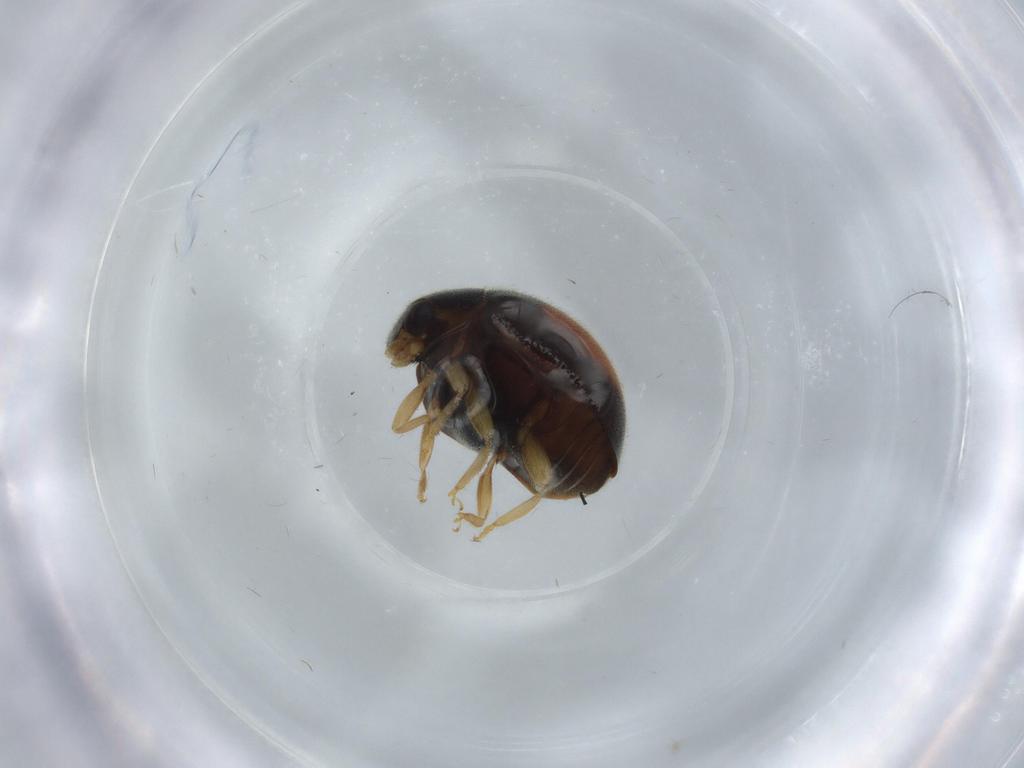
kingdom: Animalia
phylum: Arthropoda
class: Insecta
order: Coleoptera
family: Coccinellidae
